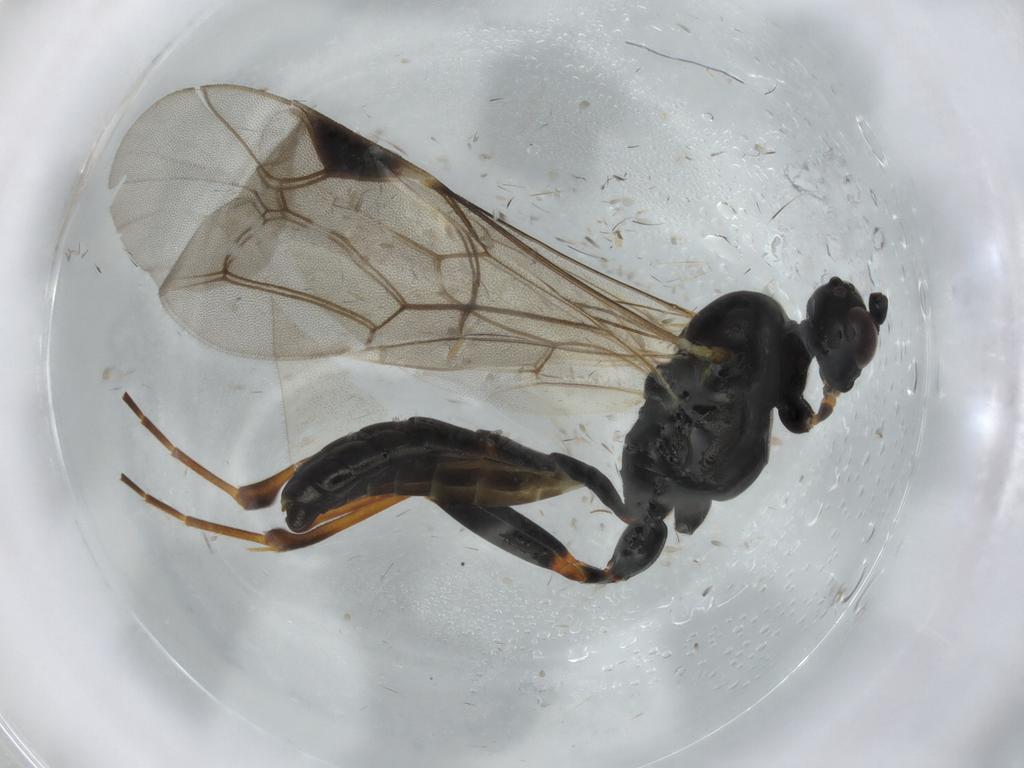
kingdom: Animalia
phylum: Arthropoda
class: Insecta
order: Hymenoptera
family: Ichneumonidae
